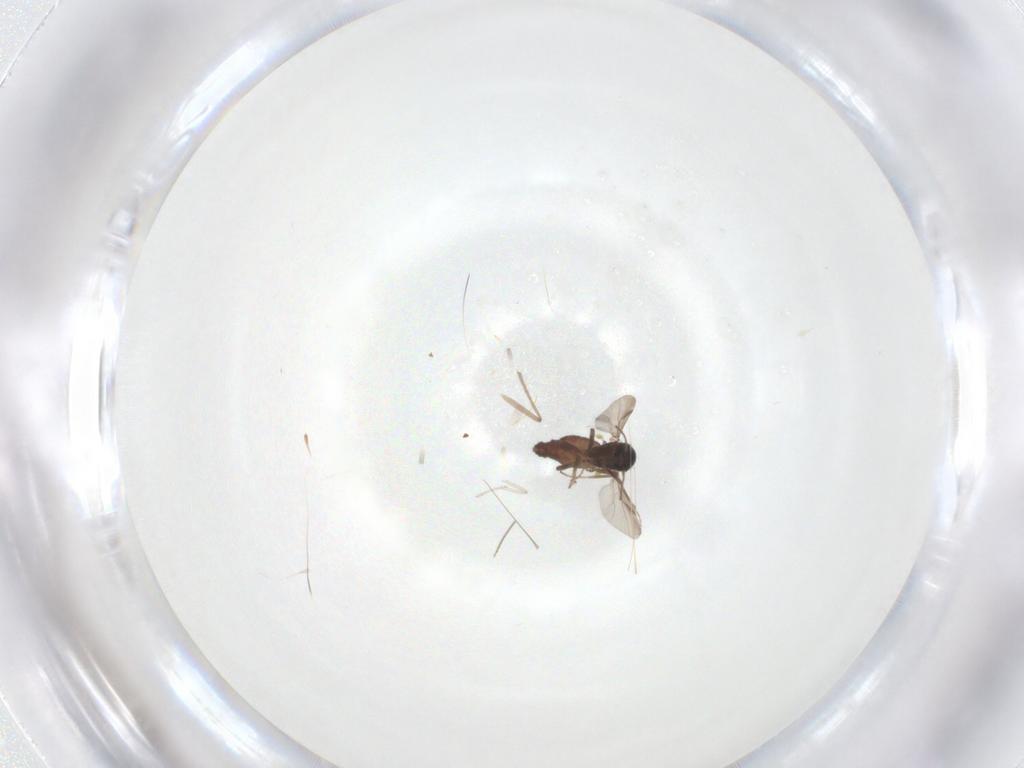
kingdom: Animalia
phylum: Arthropoda
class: Insecta
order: Diptera
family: Ceratopogonidae
